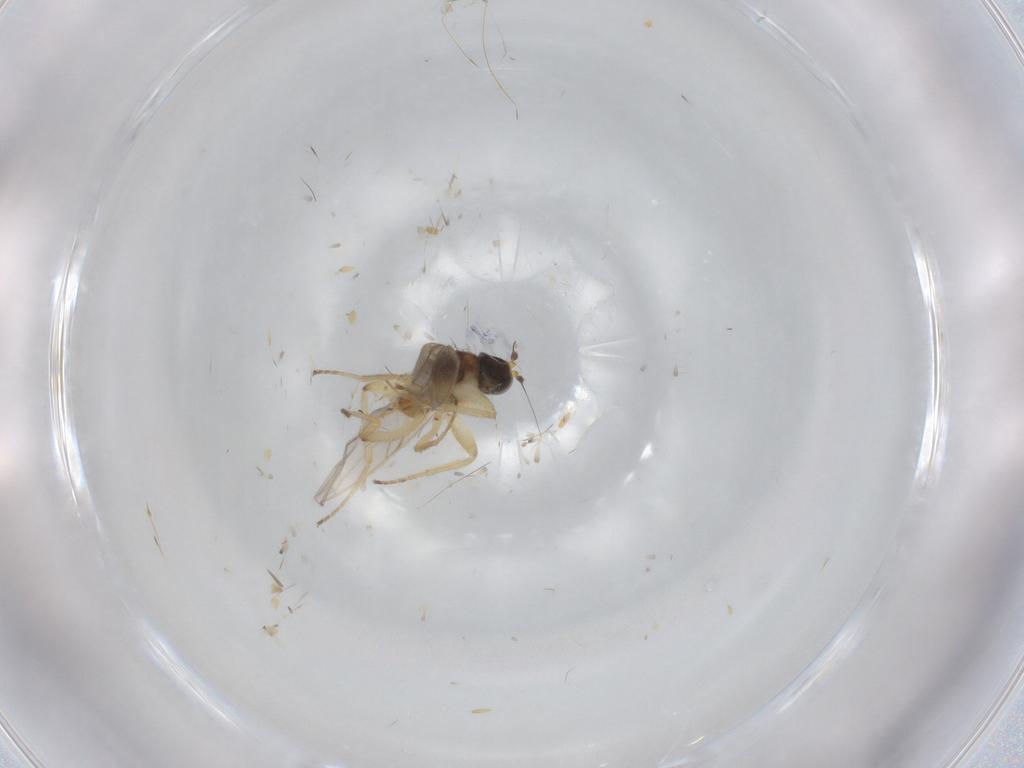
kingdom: Animalia
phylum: Arthropoda
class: Insecta
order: Diptera
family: Hybotidae
